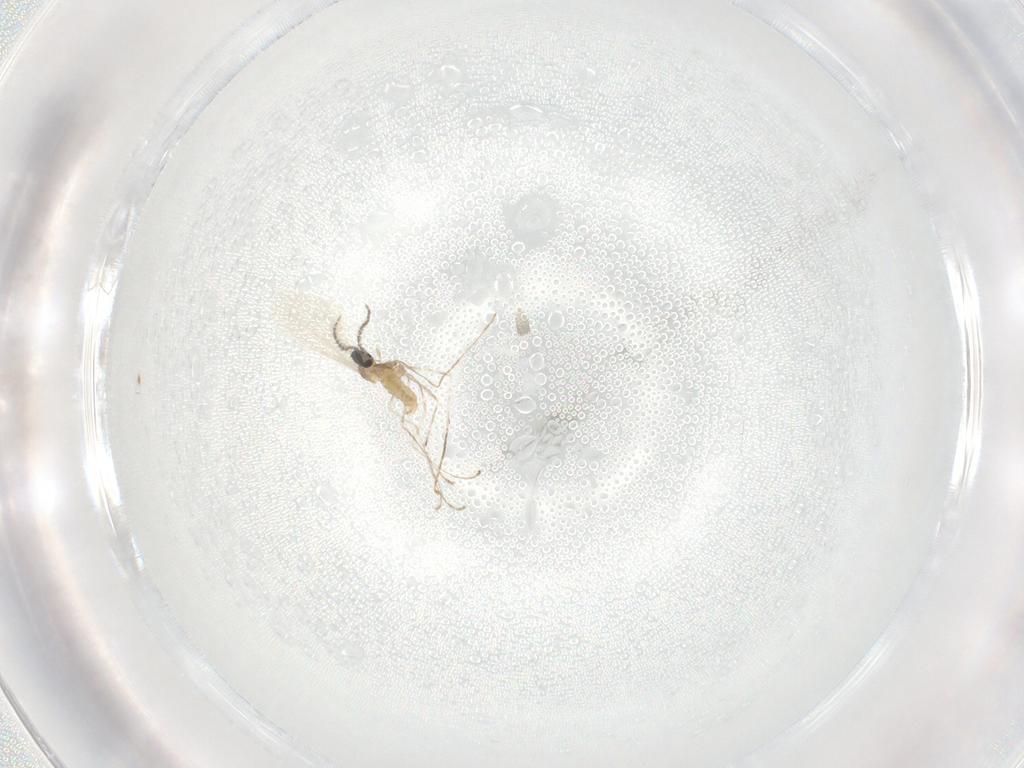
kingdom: Animalia
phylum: Arthropoda
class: Insecta
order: Diptera
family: Cecidomyiidae
